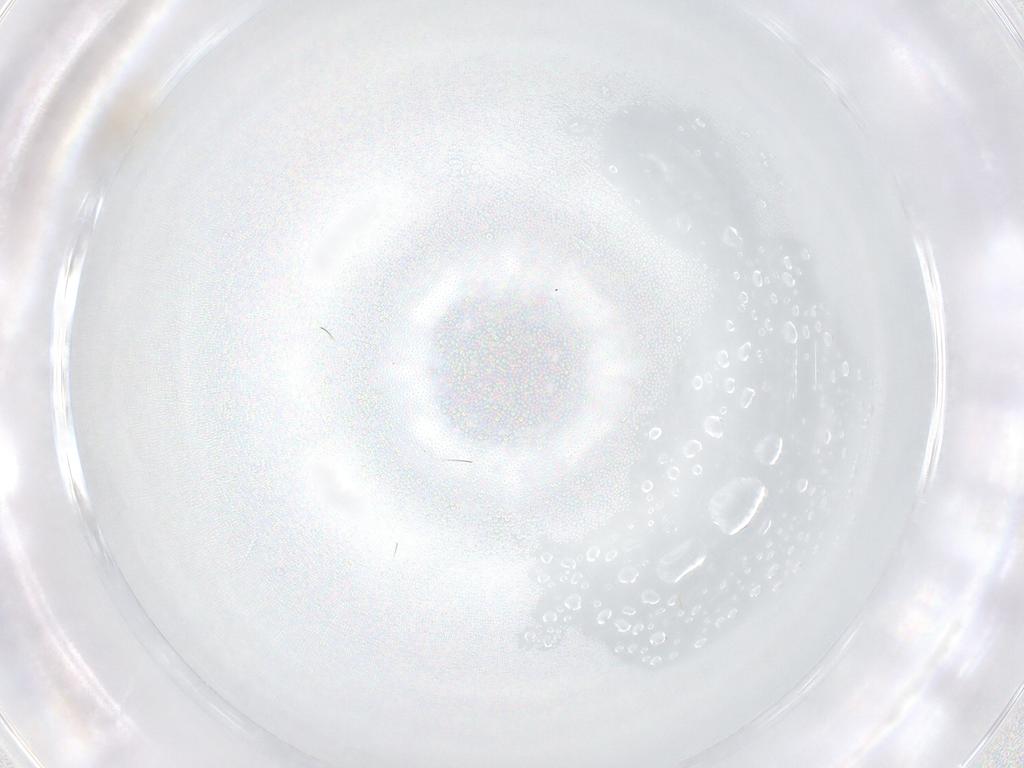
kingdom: Animalia
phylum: Arthropoda
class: Insecta
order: Diptera
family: Chironomidae
